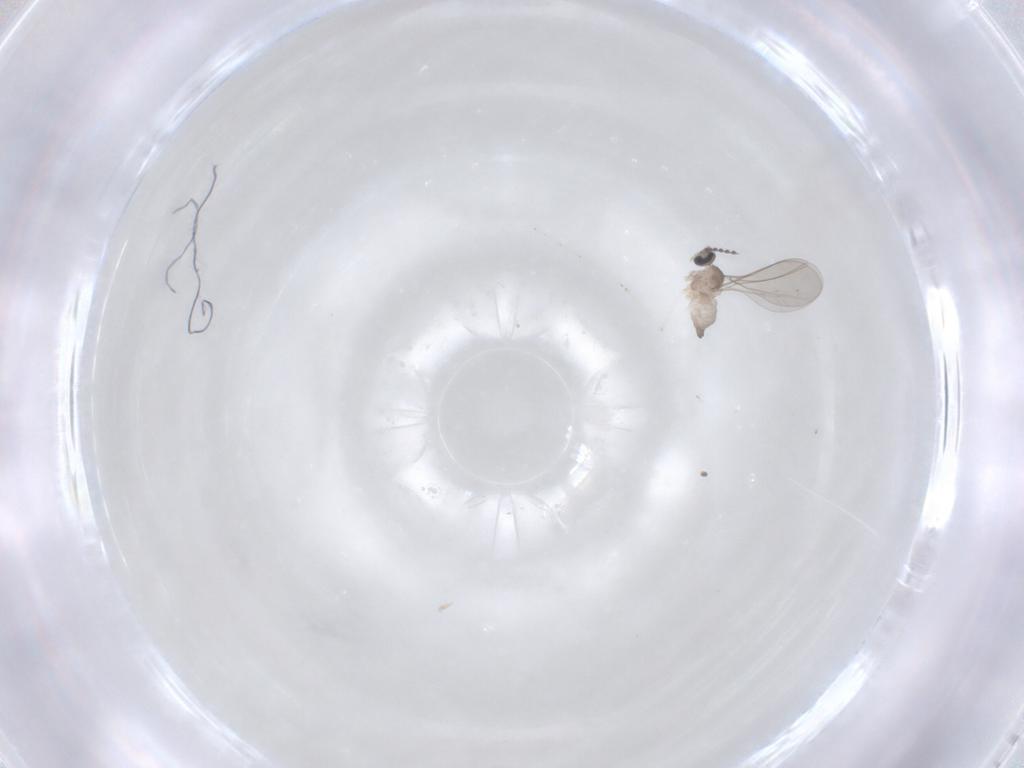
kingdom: Animalia
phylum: Arthropoda
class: Insecta
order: Diptera
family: Cecidomyiidae
